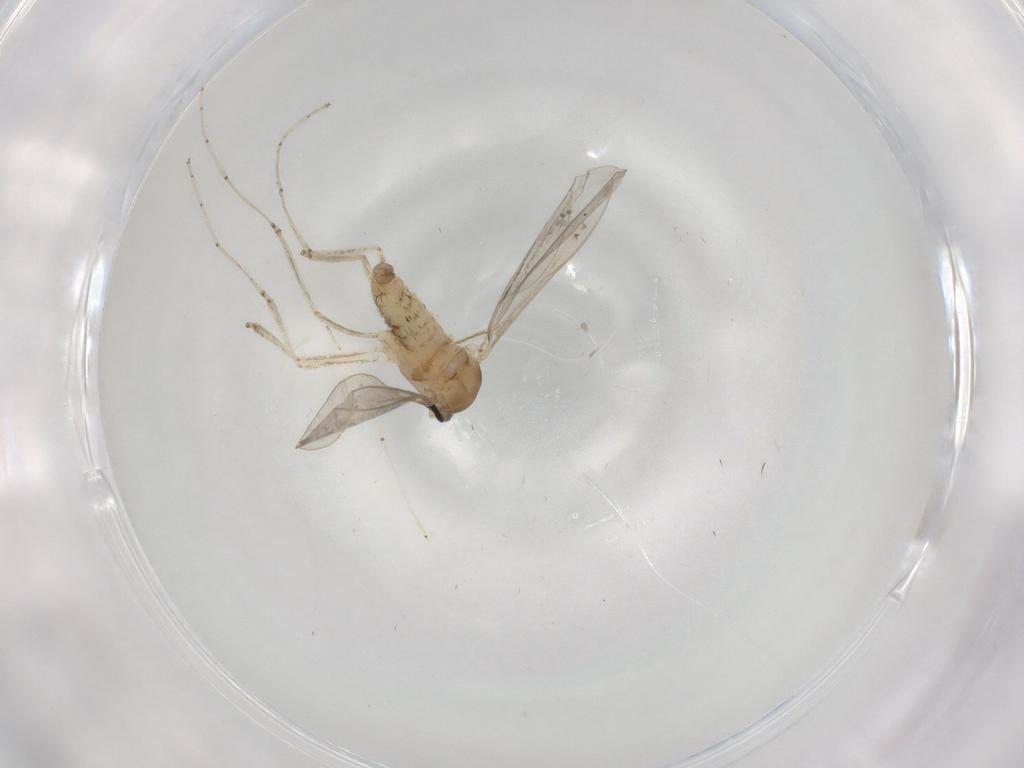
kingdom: Animalia
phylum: Arthropoda
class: Insecta
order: Diptera
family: Cecidomyiidae
